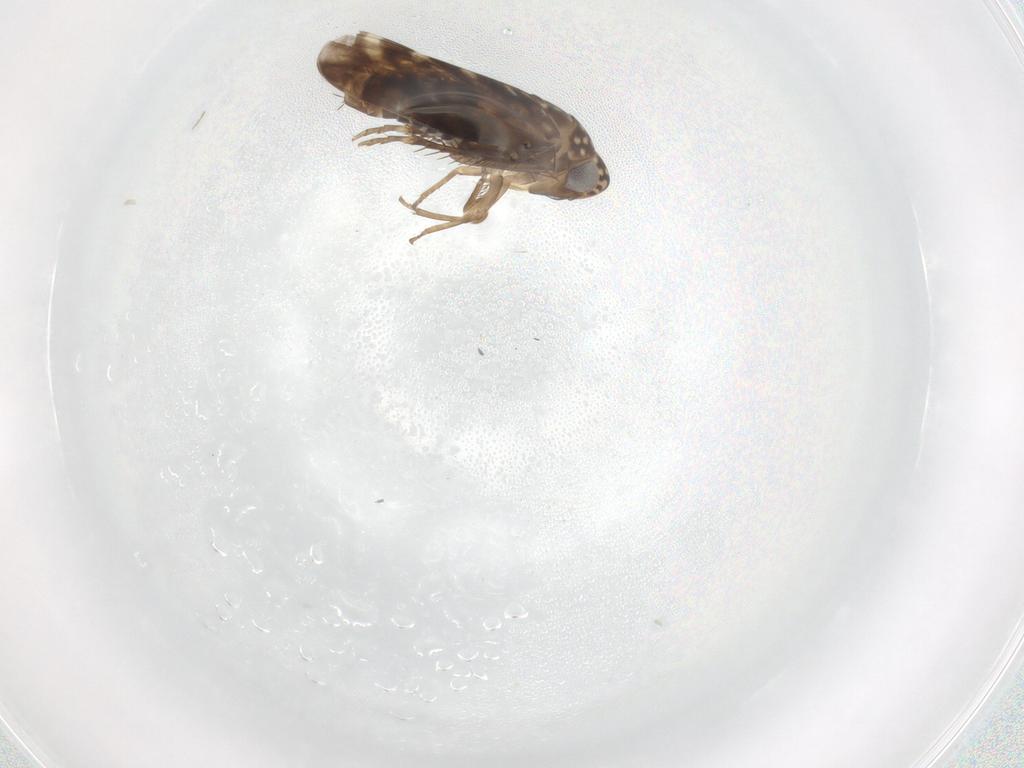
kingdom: Animalia
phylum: Arthropoda
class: Insecta
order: Hemiptera
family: Cicadellidae
